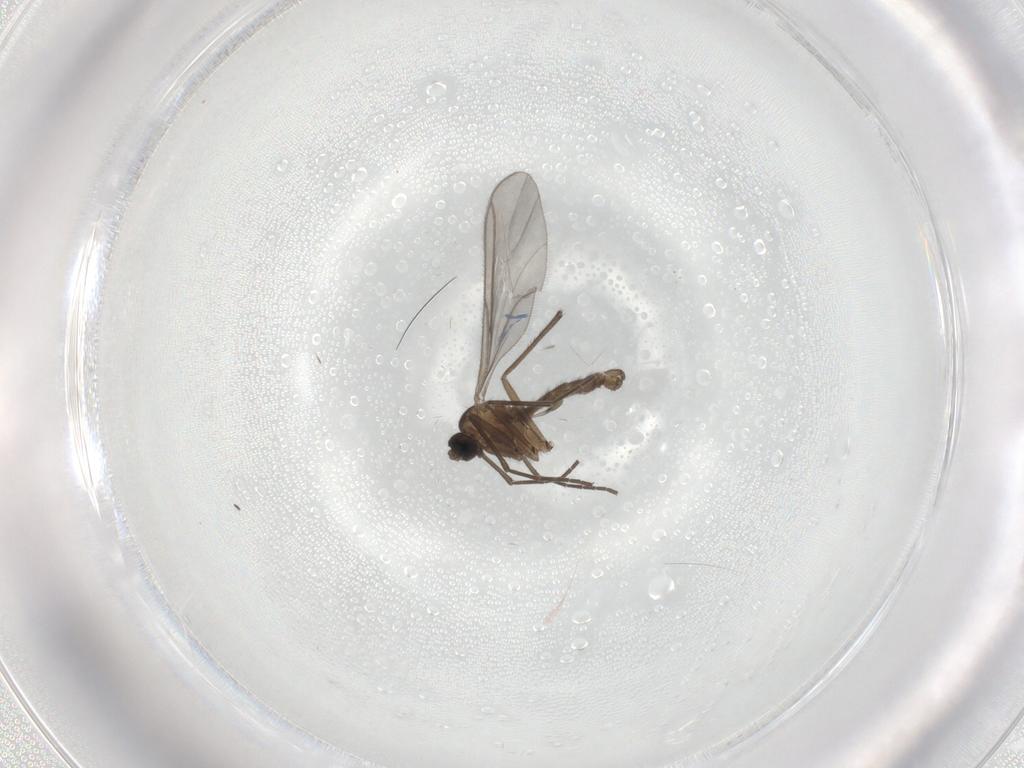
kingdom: Animalia
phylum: Arthropoda
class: Insecta
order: Diptera
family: Sciaridae
